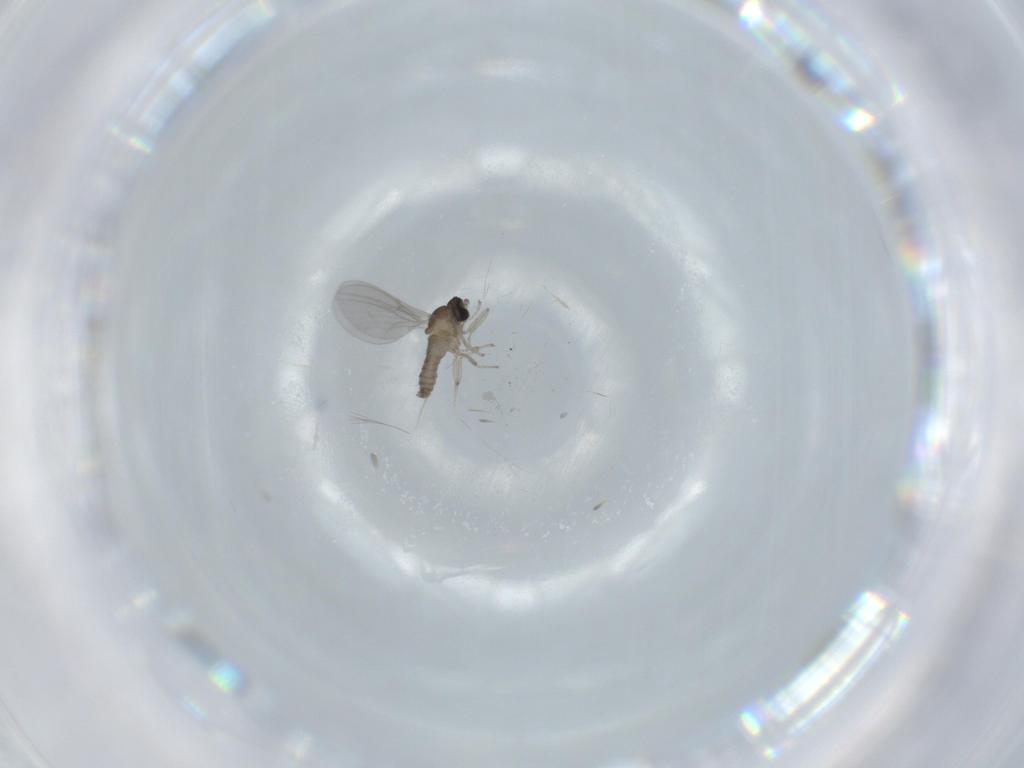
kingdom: Animalia
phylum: Arthropoda
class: Insecta
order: Diptera
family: Cecidomyiidae
